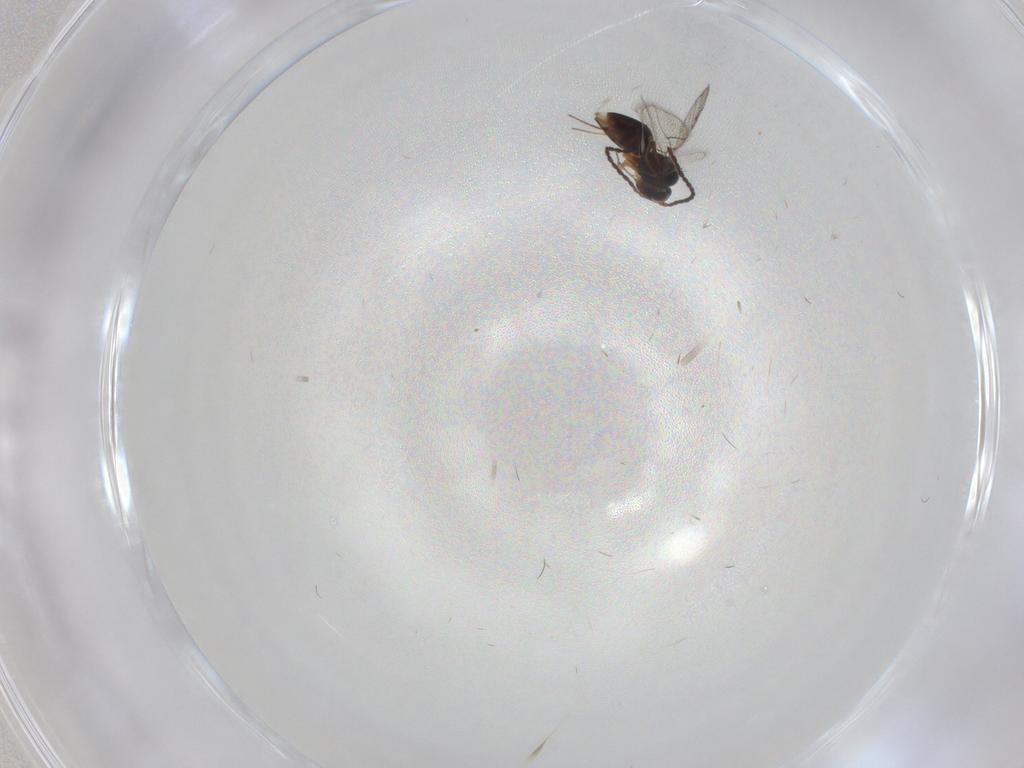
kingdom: Animalia
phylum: Arthropoda
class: Insecta
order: Hymenoptera
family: Figitidae
